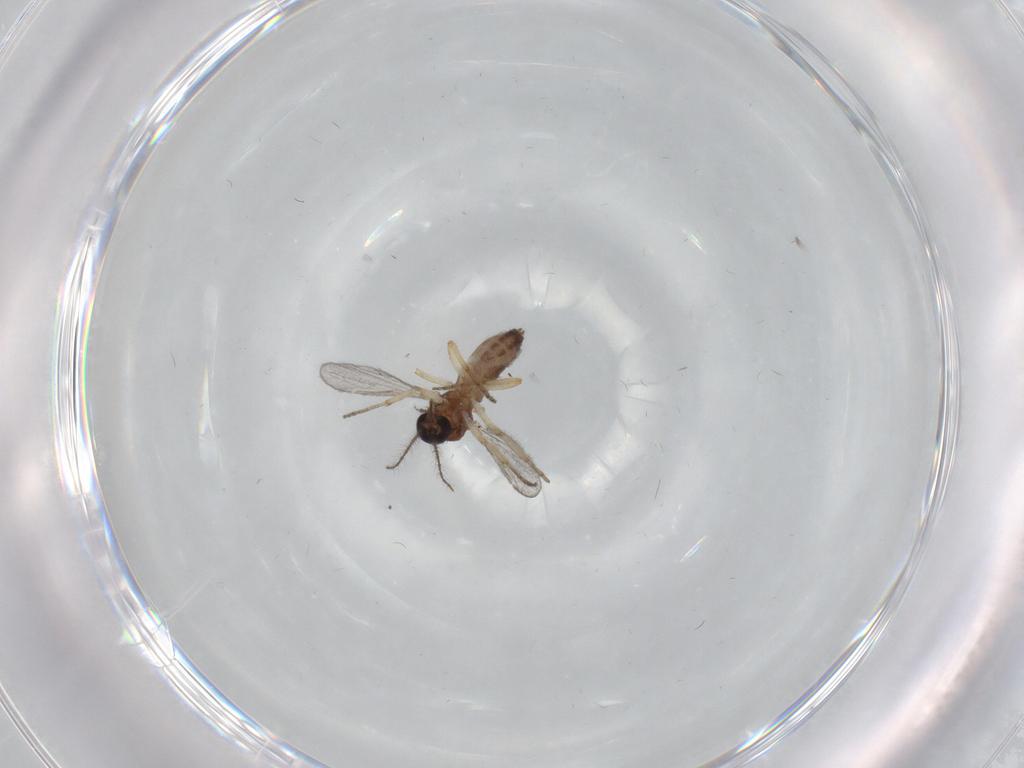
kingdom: Animalia
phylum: Arthropoda
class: Insecta
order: Diptera
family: Ceratopogonidae
